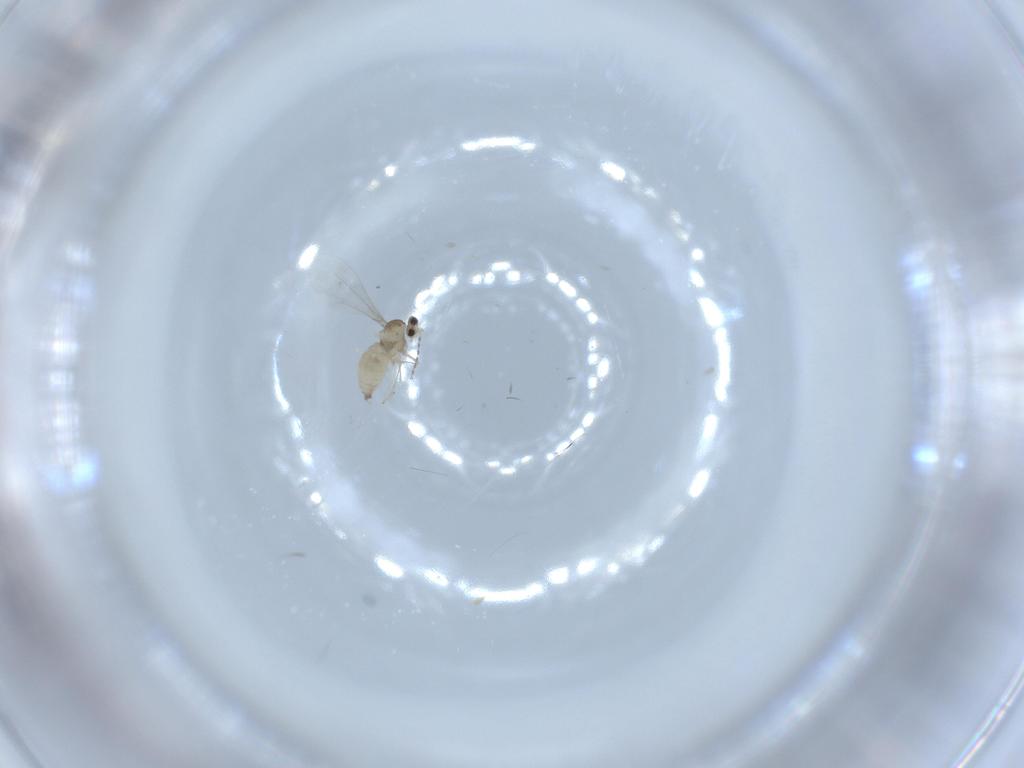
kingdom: Animalia
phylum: Arthropoda
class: Insecta
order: Diptera
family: Cecidomyiidae
